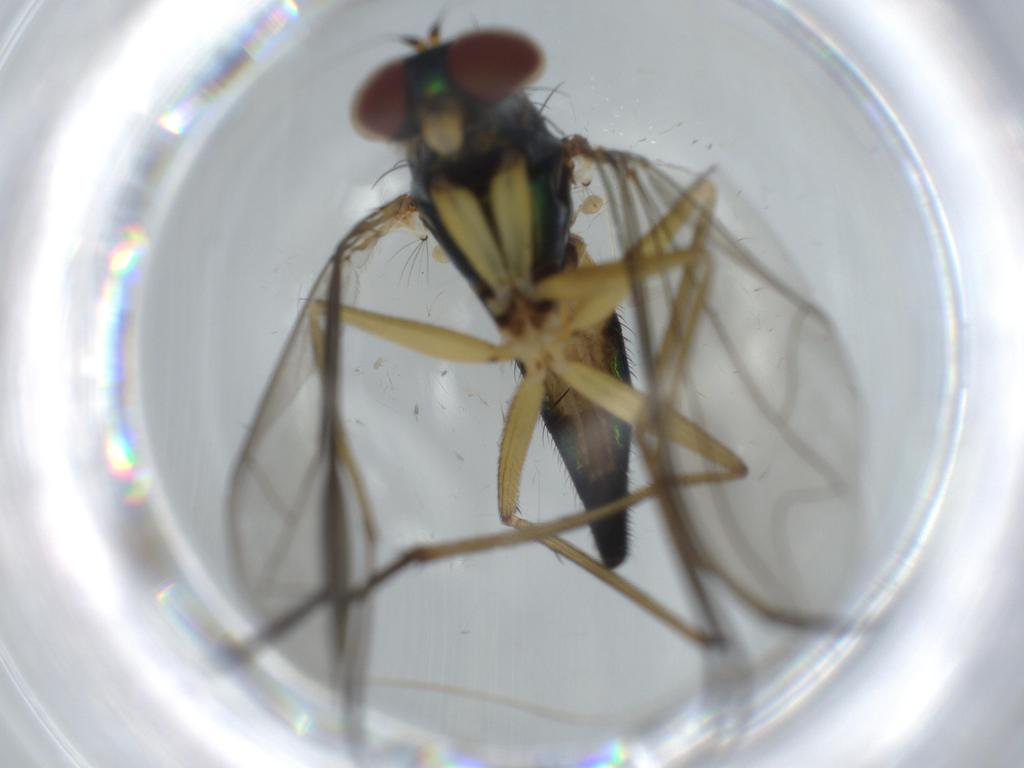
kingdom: Animalia
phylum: Arthropoda
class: Insecta
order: Diptera
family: Dolichopodidae
